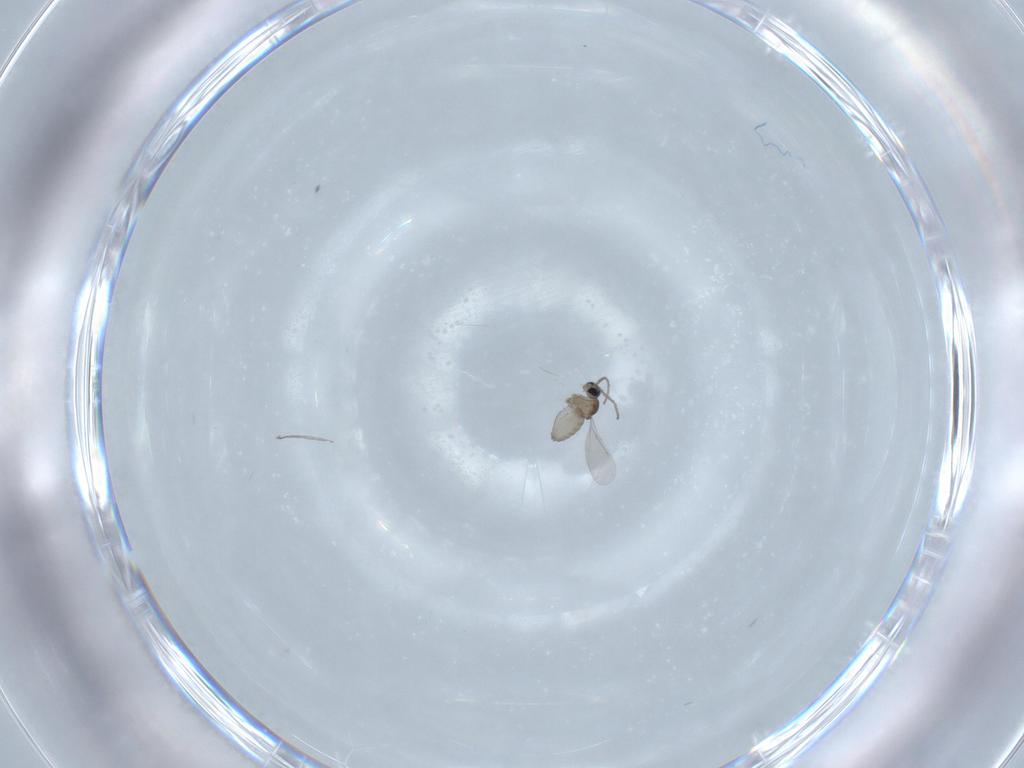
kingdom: Animalia
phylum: Arthropoda
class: Insecta
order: Diptera
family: Cecidomyiidae
